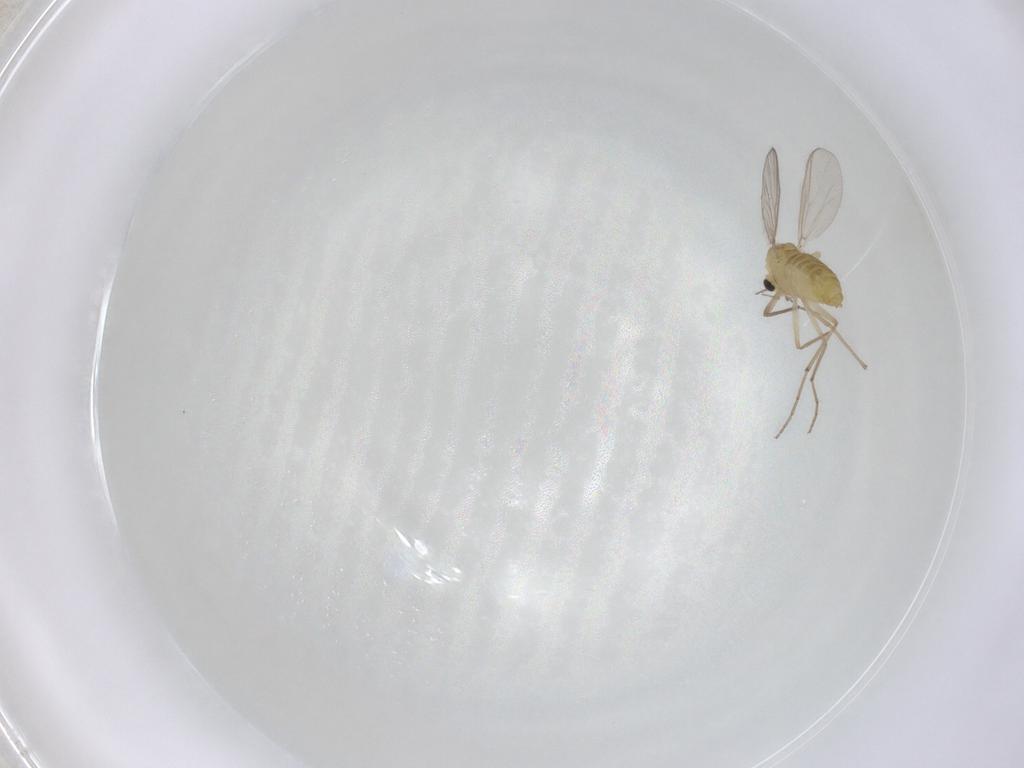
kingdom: Animalia
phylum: Arthropoda
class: Insecta
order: Diptera
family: Chironomidae
